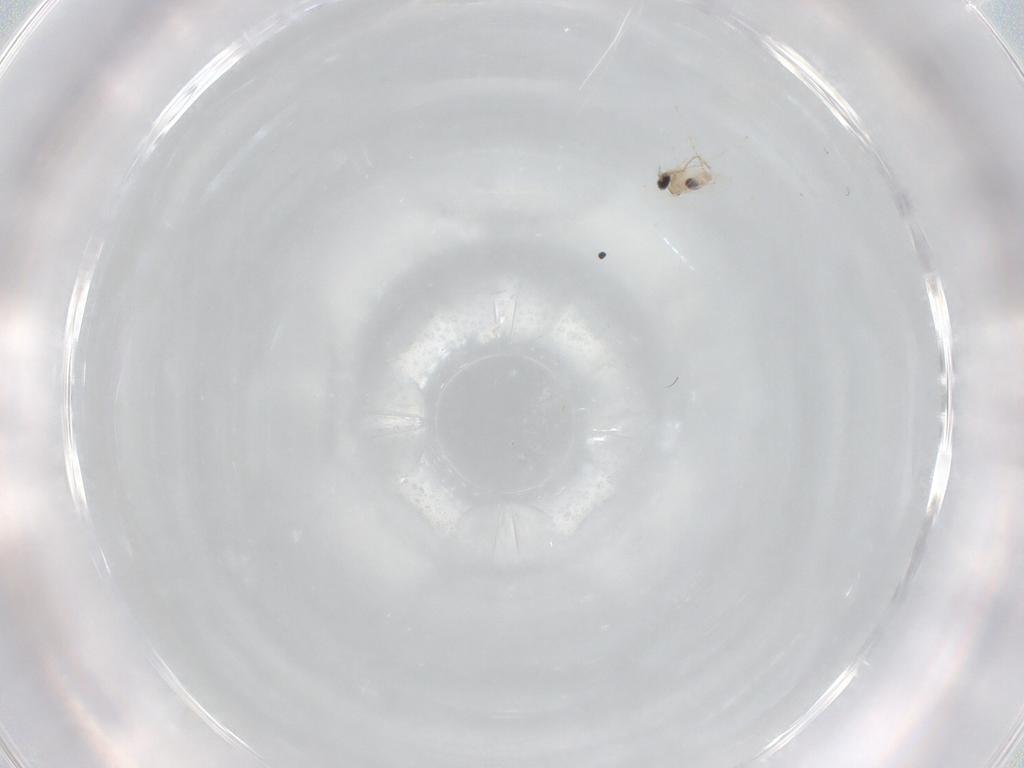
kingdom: Animalia
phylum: Arthropoda
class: Insecta
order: Diptera
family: Cecidomyiidae
